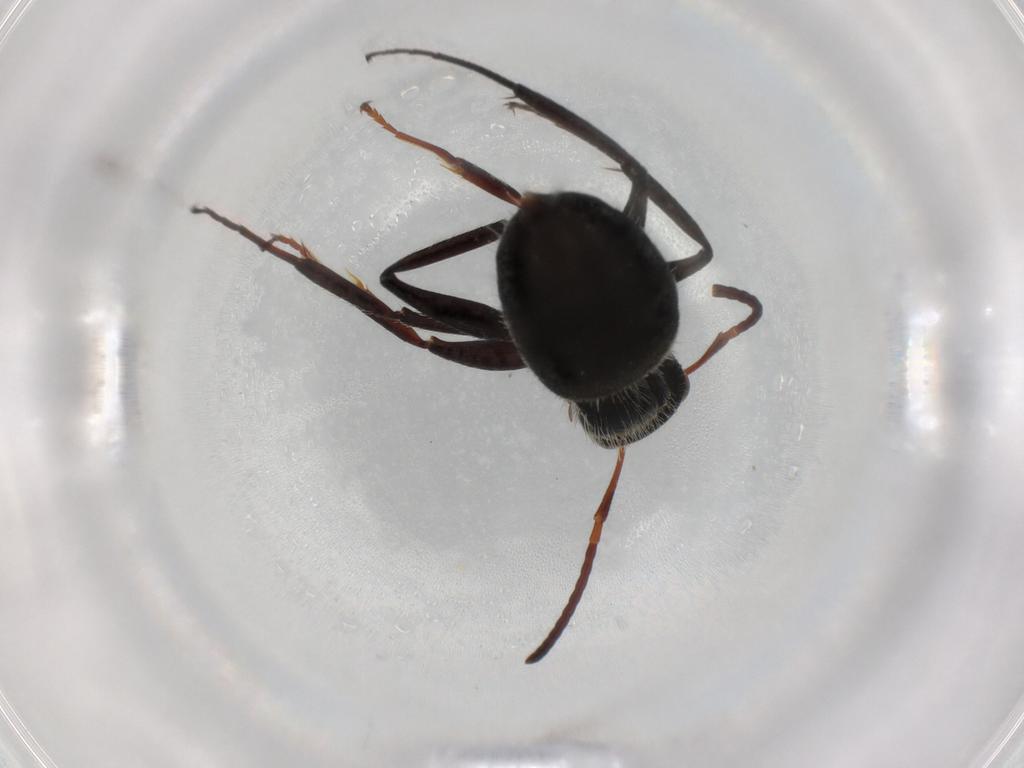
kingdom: Animalia
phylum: Arthropoda
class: Insecta
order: Hymenoptera
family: Formicidae
